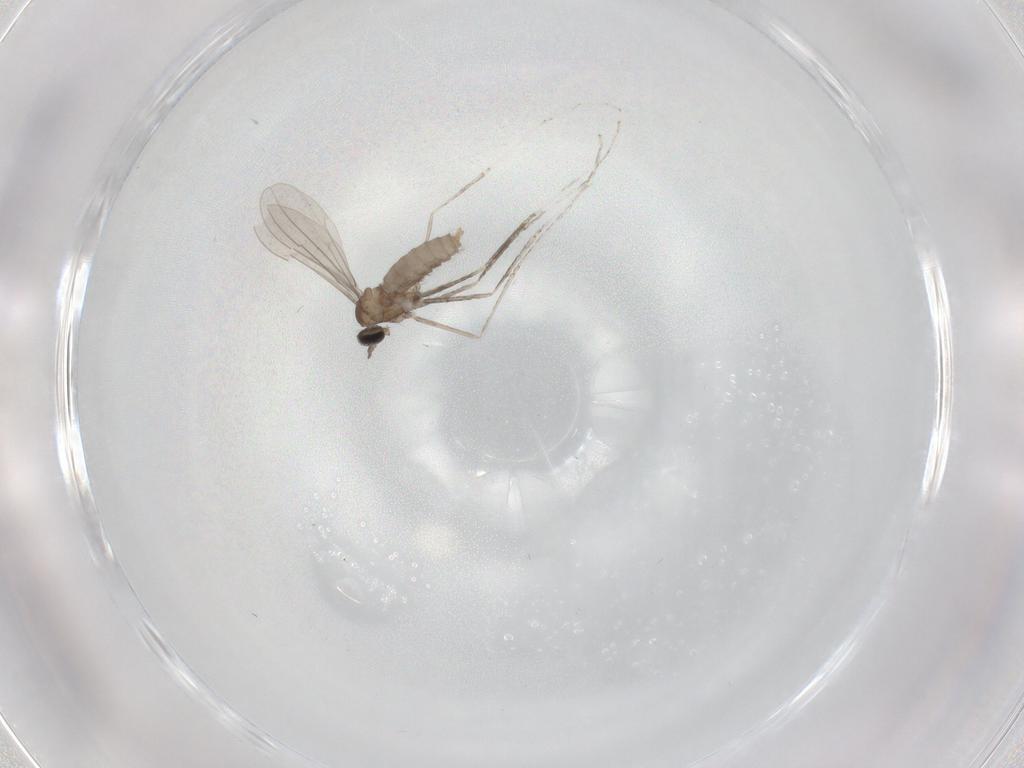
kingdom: Animalia
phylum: Arthropoda
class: Insecta
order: Diptera
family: Cecidomyiidae
